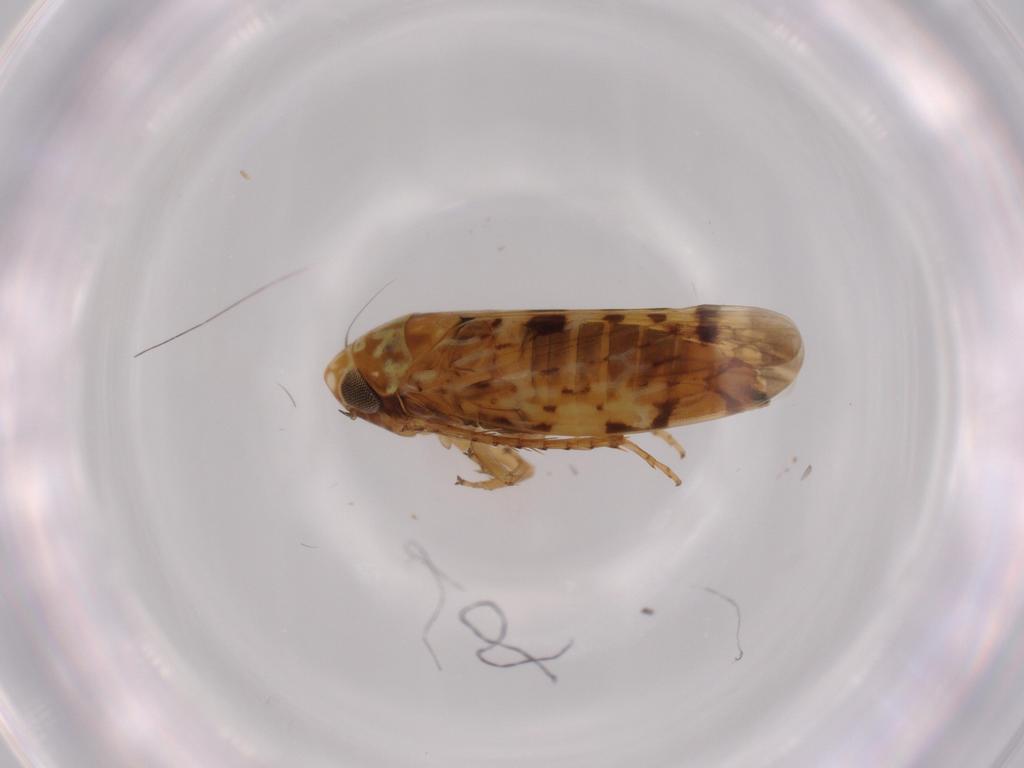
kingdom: Animalia
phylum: Arthropoda
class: Insecta
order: Hemiptera
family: Cicadellidae
